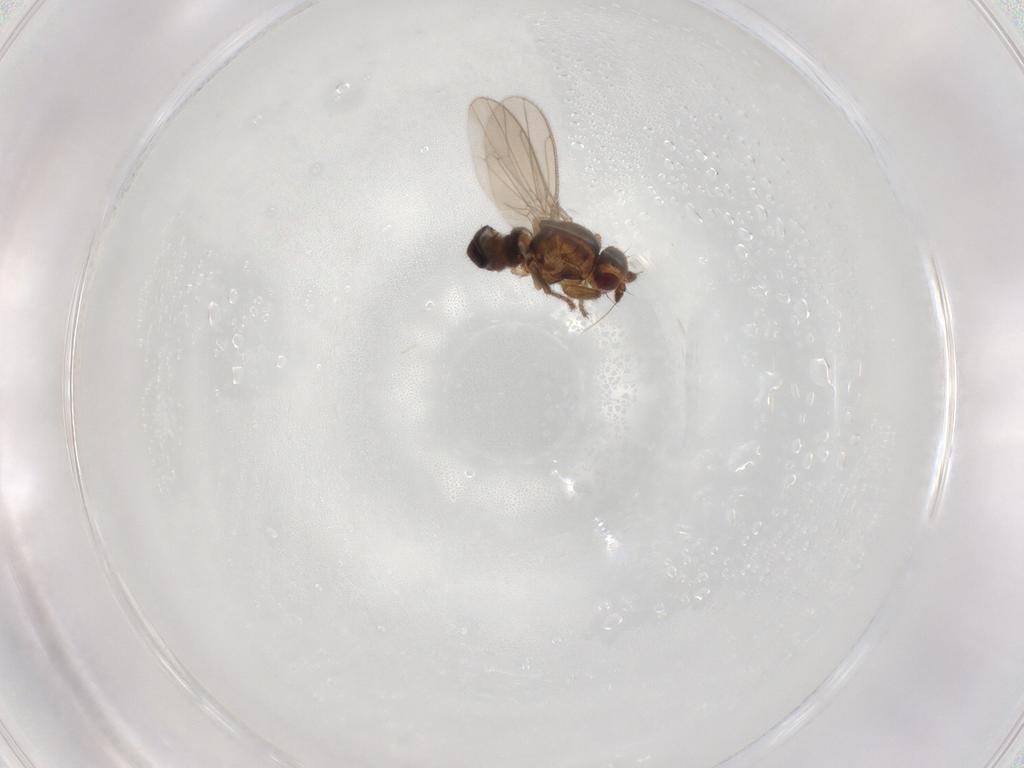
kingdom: Animalia
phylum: Arthropoda
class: Insecta
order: Diptera
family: Sphaeroceridae
